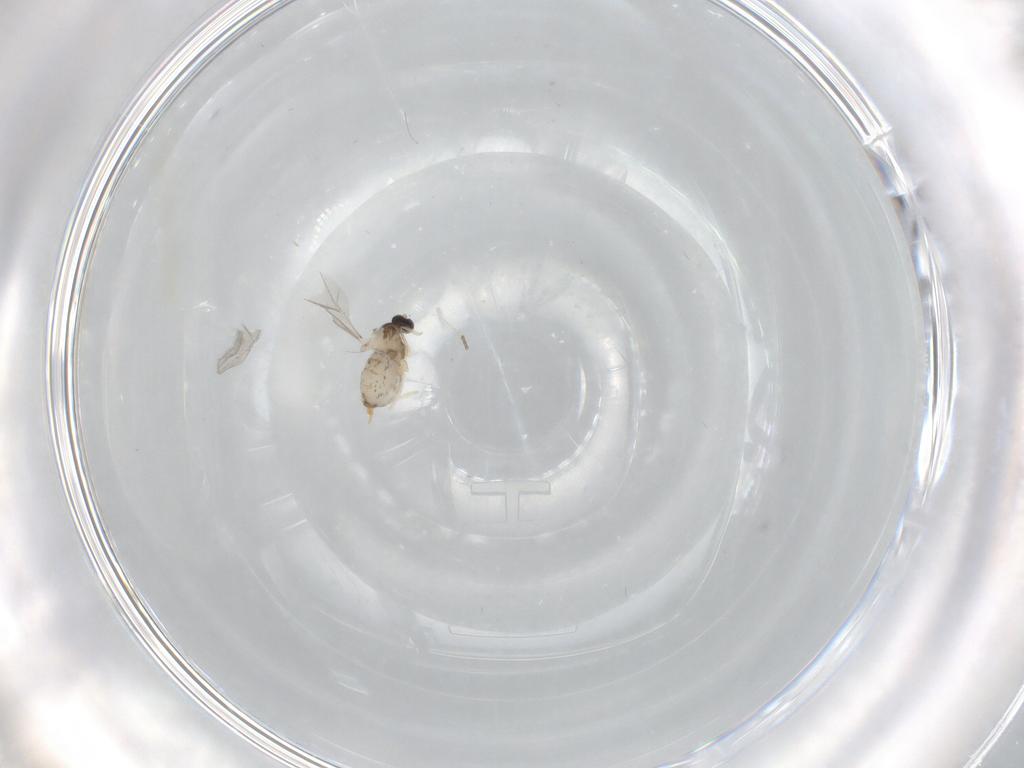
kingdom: Animalia
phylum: Arthropoda
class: Insecta
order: Diptera
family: Cecidomyiidae
